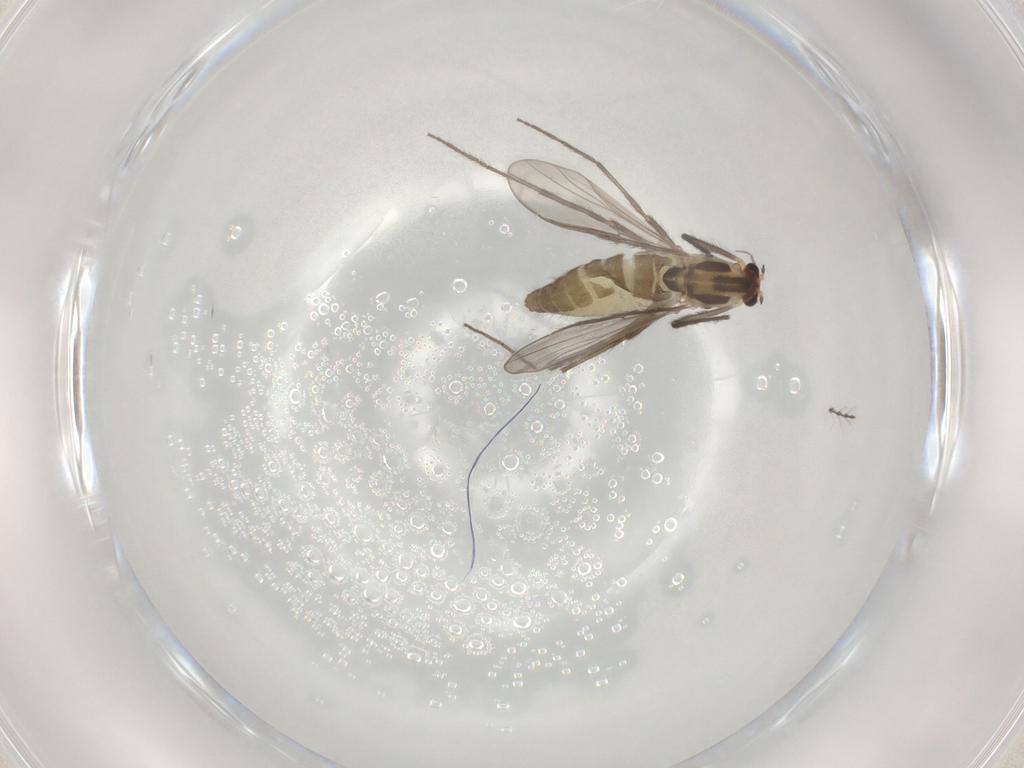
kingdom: Animalia
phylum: Arthropoda
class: Insecta
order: Diptera
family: Chironomidae
